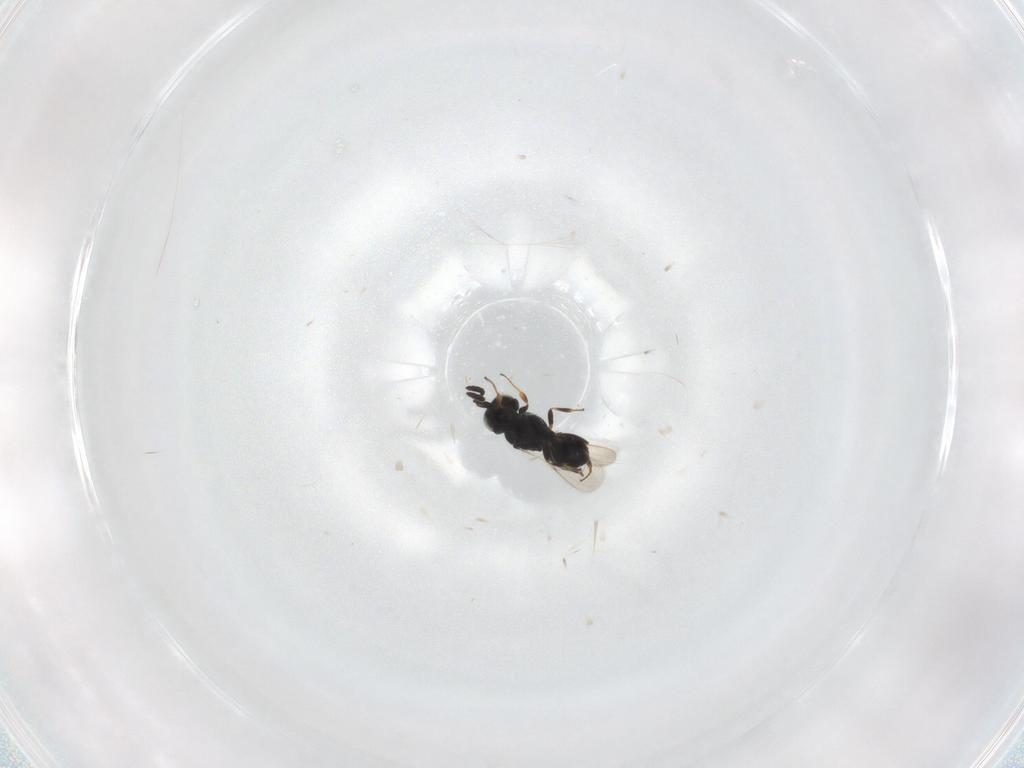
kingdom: Animalia
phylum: Arthropoda
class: Insecta
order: Hymenoptera
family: Scelionidae
